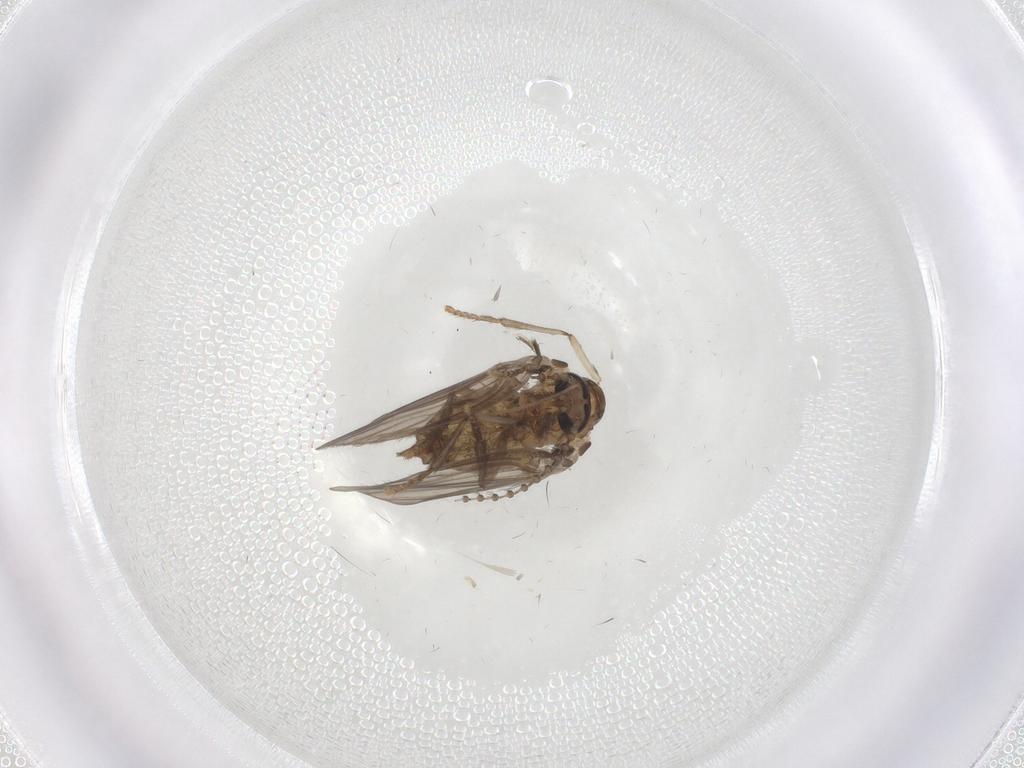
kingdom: Animalia
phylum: Arthropoda
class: Insecta
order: Diptera
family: Psychodidae
